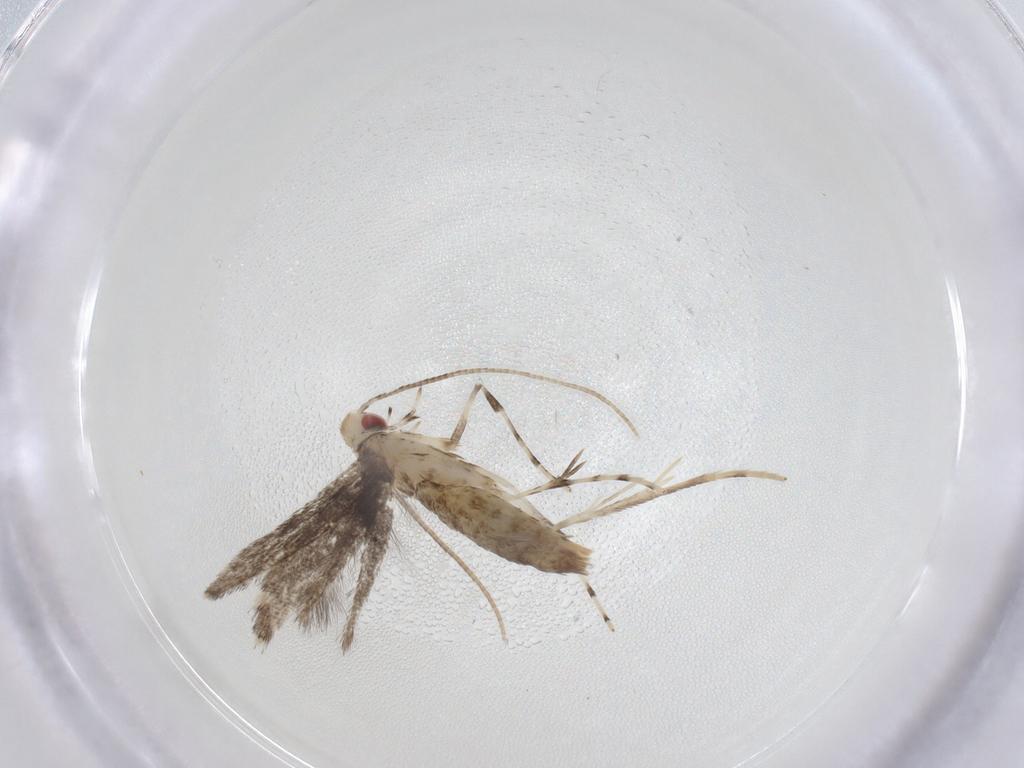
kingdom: Animalia
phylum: Arthropoda
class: Insecta
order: Lepidoptera
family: Gracillariidae
